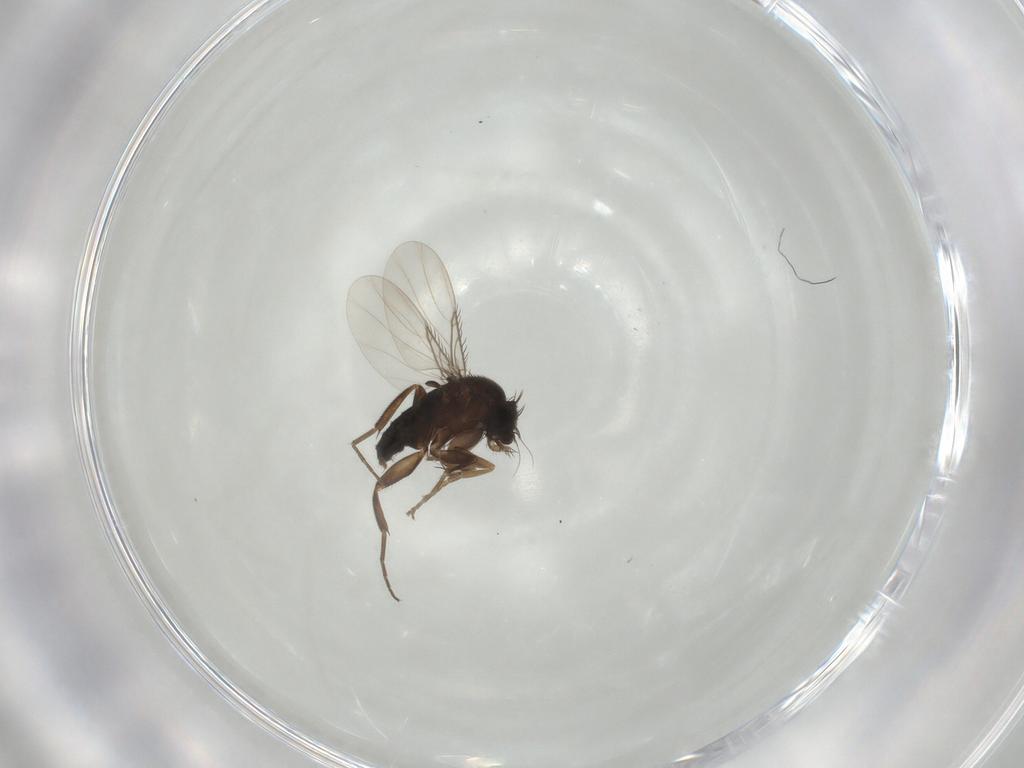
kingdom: Animalia
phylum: Arthropoda
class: Insecta
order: Diptera
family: Phoridae
